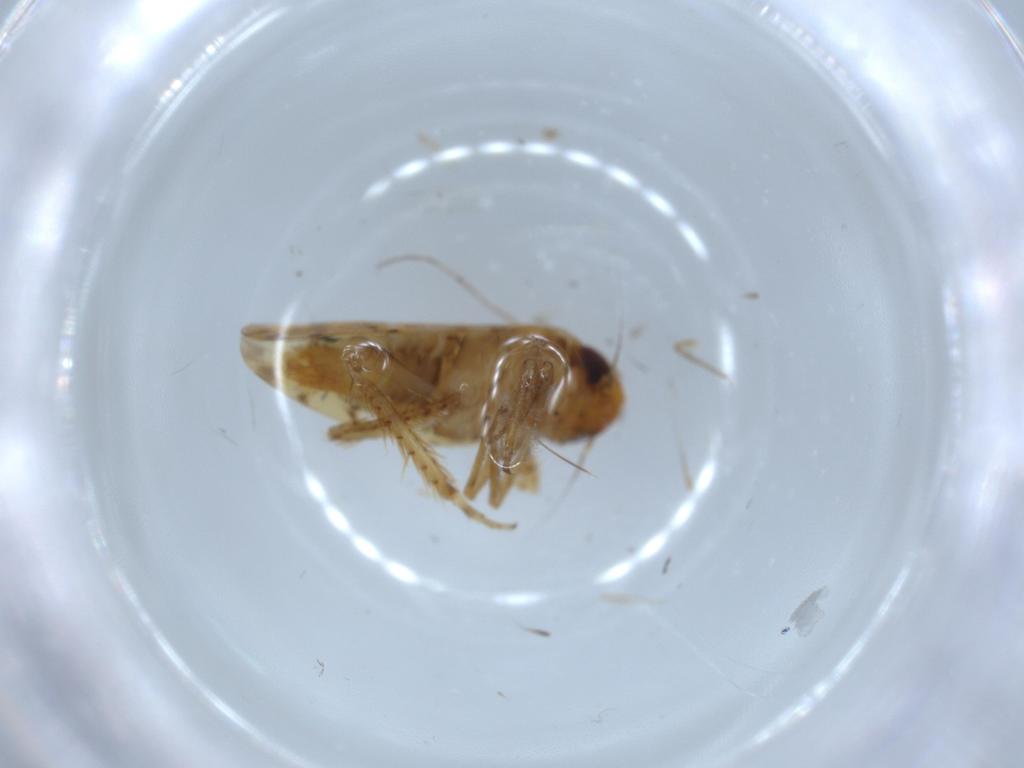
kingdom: Animalia
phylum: Arthropoda
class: Insecta
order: Hemiptera
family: Cicadellidae
